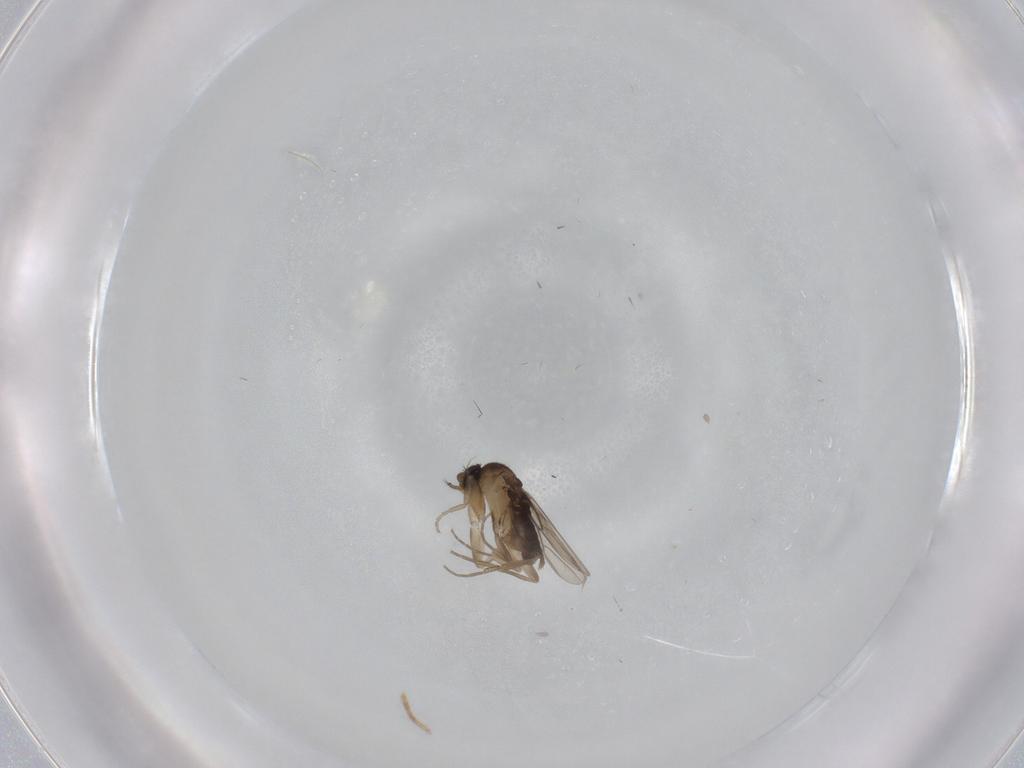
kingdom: Animalia
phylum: Arthropoda
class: Insecta
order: Diptera
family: Phoridae
